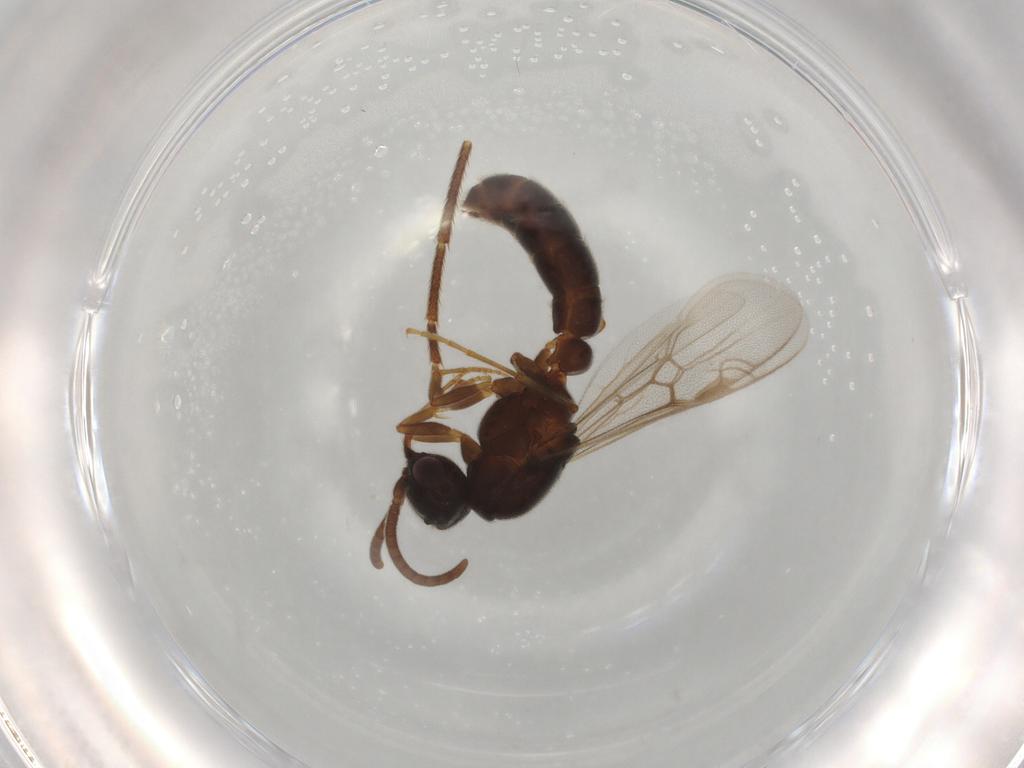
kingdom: Animalia
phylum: Arthropoda
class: Insecta
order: Hymenoptera
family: Formicidae
